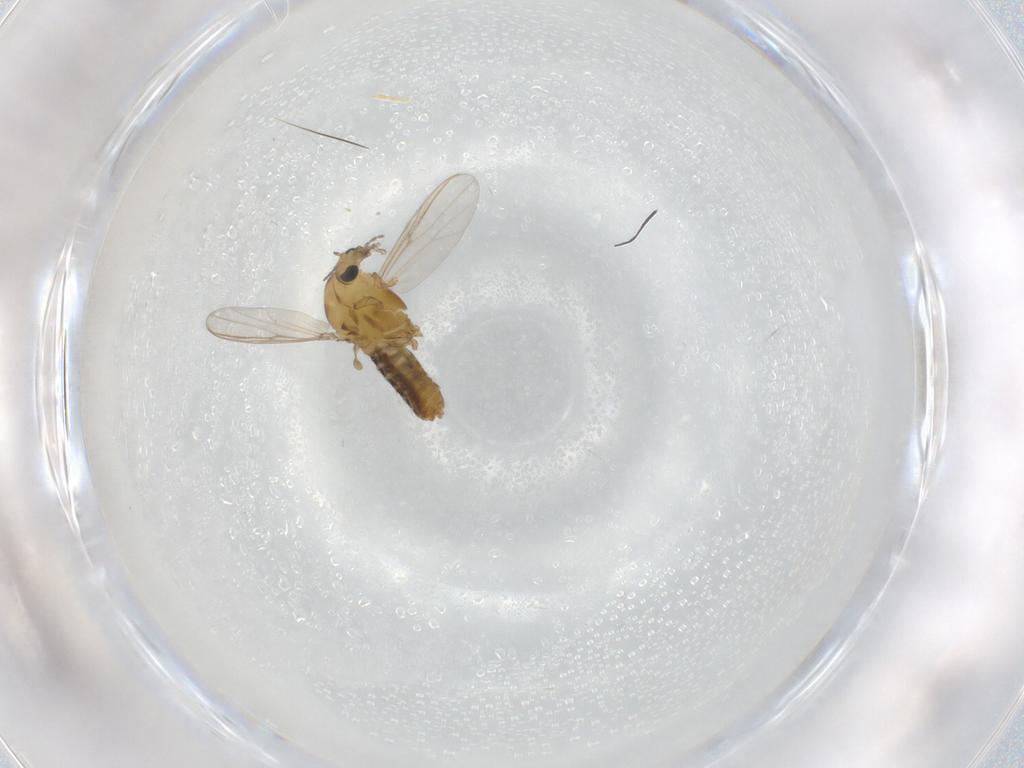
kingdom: Animalia
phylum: Arthropoda
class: Insecta
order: Diptera
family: Chironomidae
